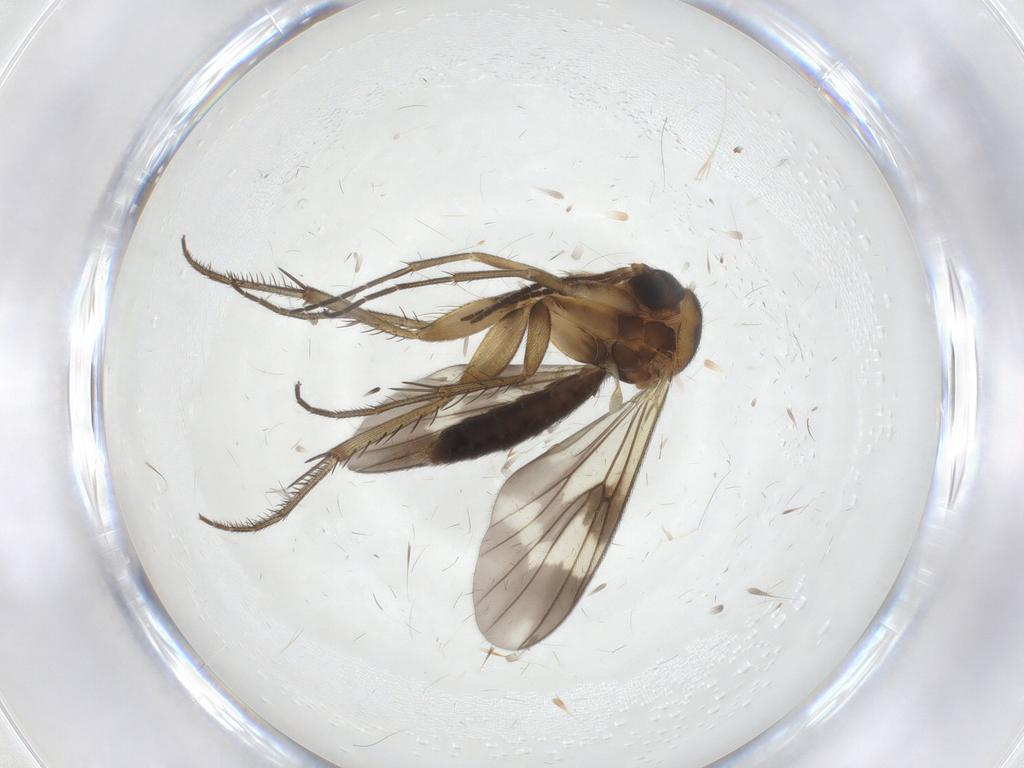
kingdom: Animalia
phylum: Arthropoda
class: Insecta
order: Diptera
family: Mycetophilidae
